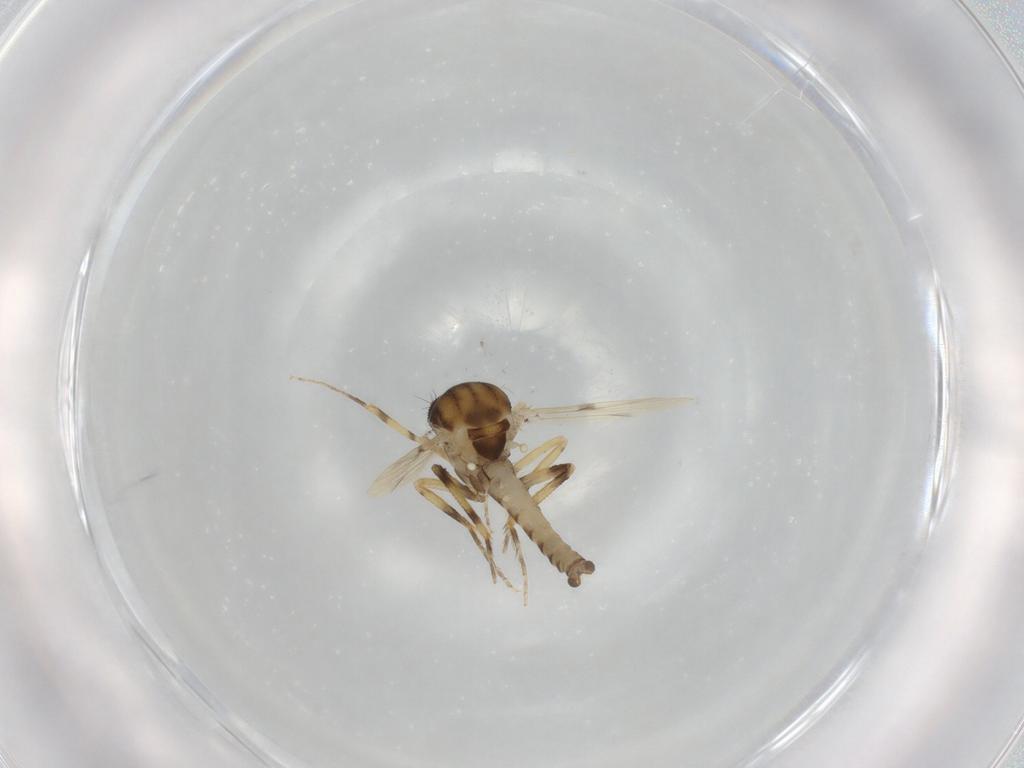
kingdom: Animalia
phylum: Arthropoda
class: Insecta
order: Diptera
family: Ceratopogonidae
